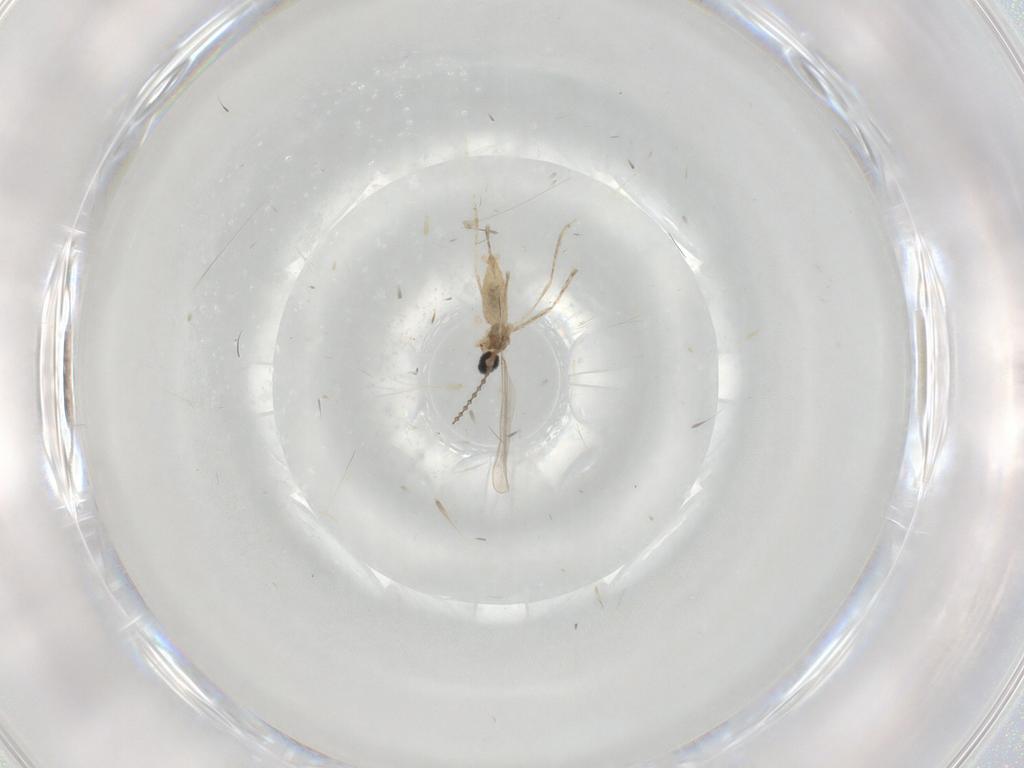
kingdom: Animalia
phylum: Arthropoda
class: Insecta
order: Diptera
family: Cecidomyiidae
